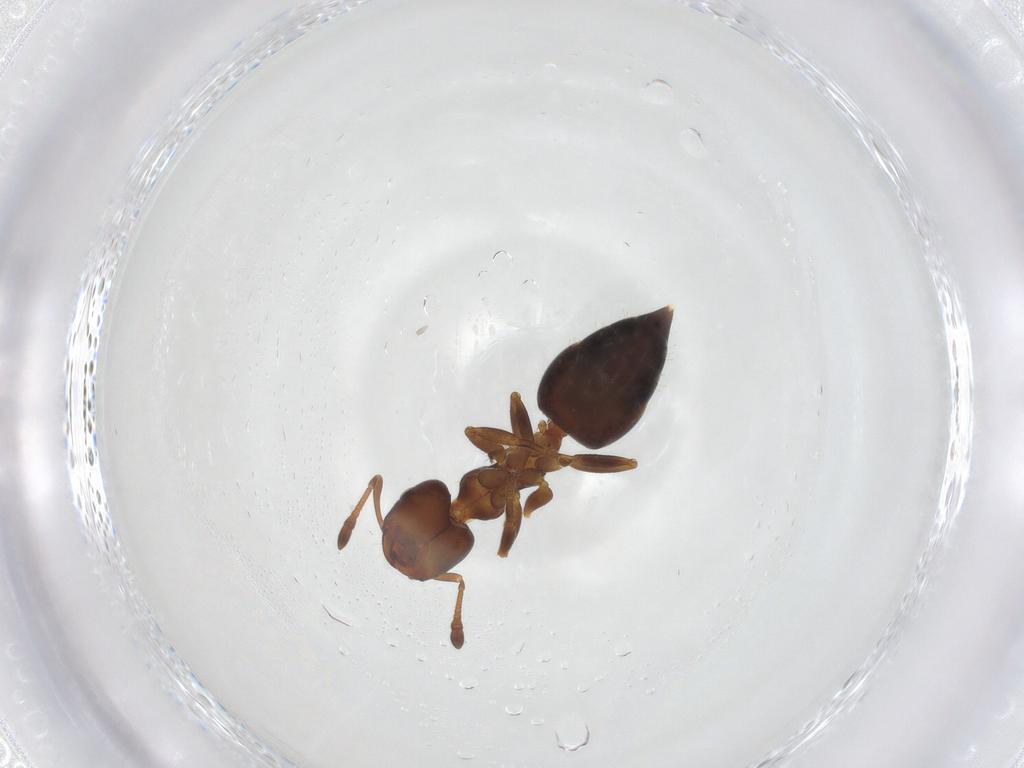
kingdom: Animalia
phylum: Arthropoda
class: Insecta
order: Hymenoptera
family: Formicidae
